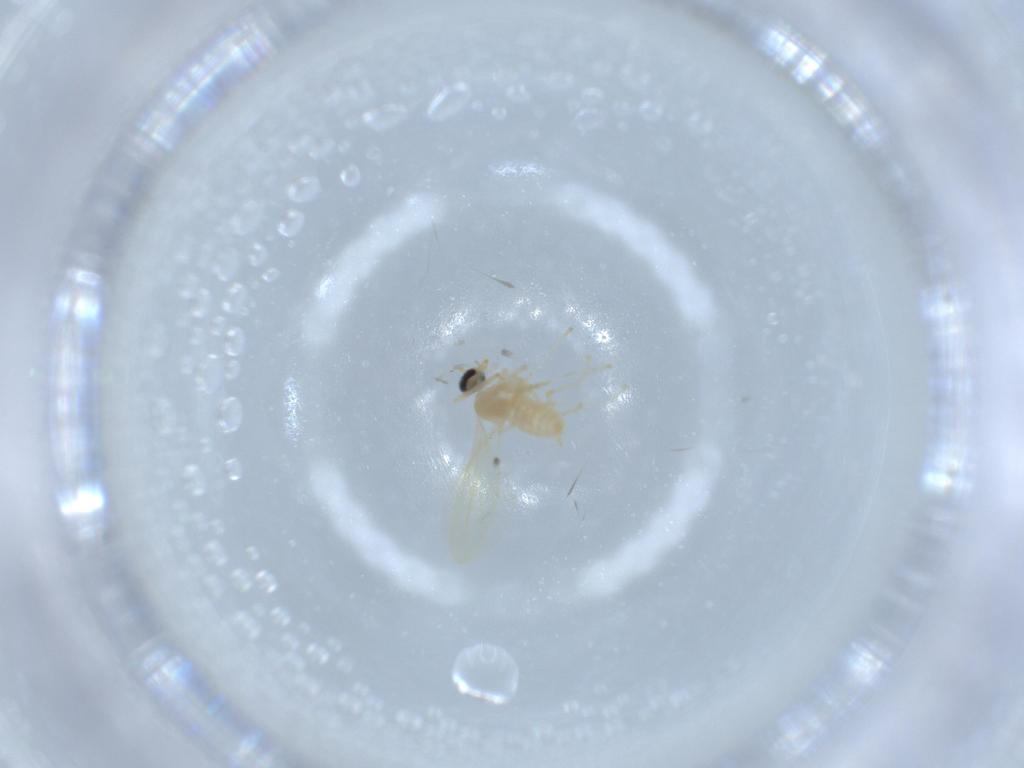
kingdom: Animalia
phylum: Arthropoda
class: Insecta
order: Diptera
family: Cecidomyiidae
